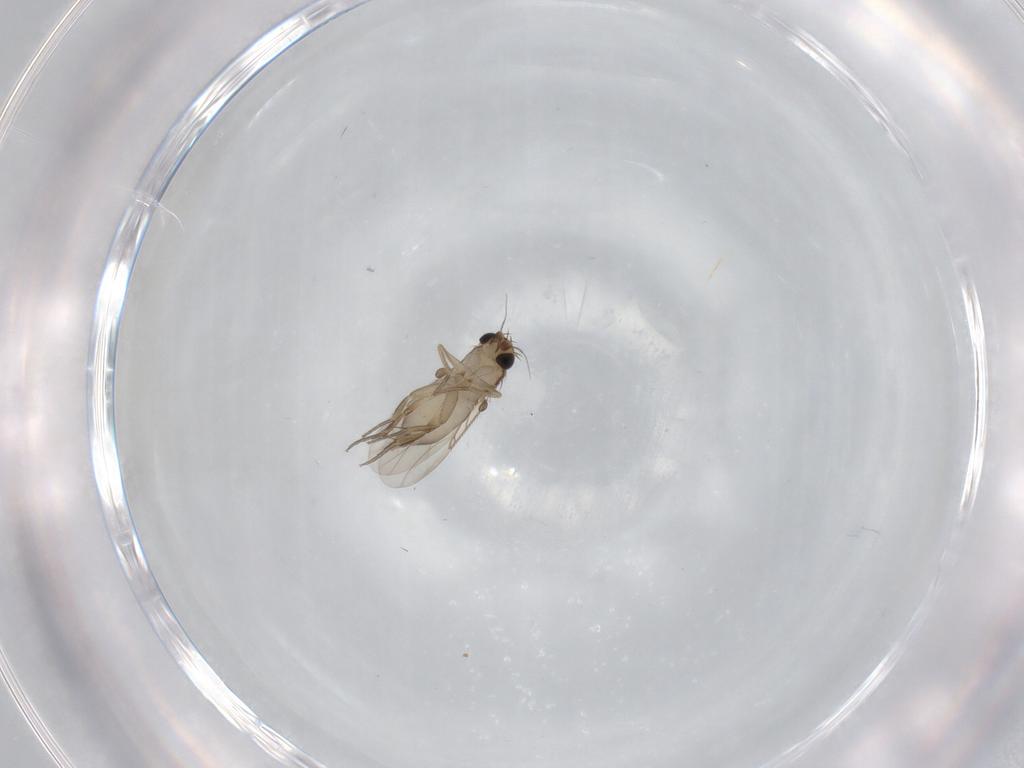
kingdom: Animalia
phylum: Arthropoda
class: Insecta
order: Diptera
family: Phoridae
